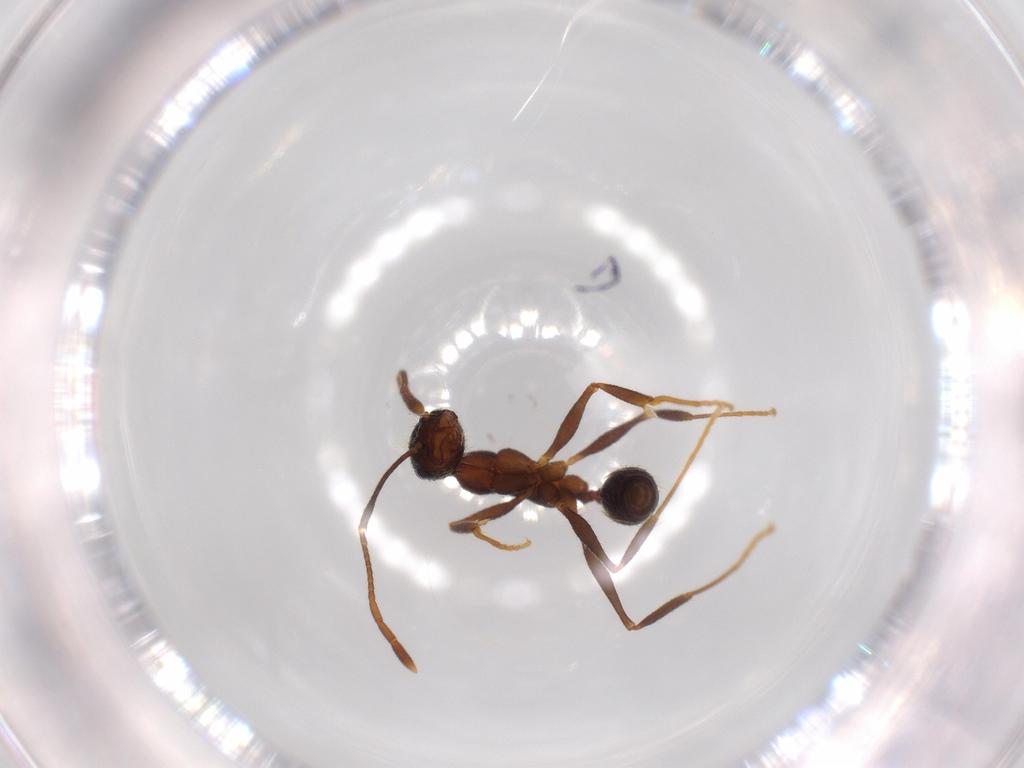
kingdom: Animalia
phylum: Arthropoda
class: Insecta
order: Hymenoptera
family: Formicidae
